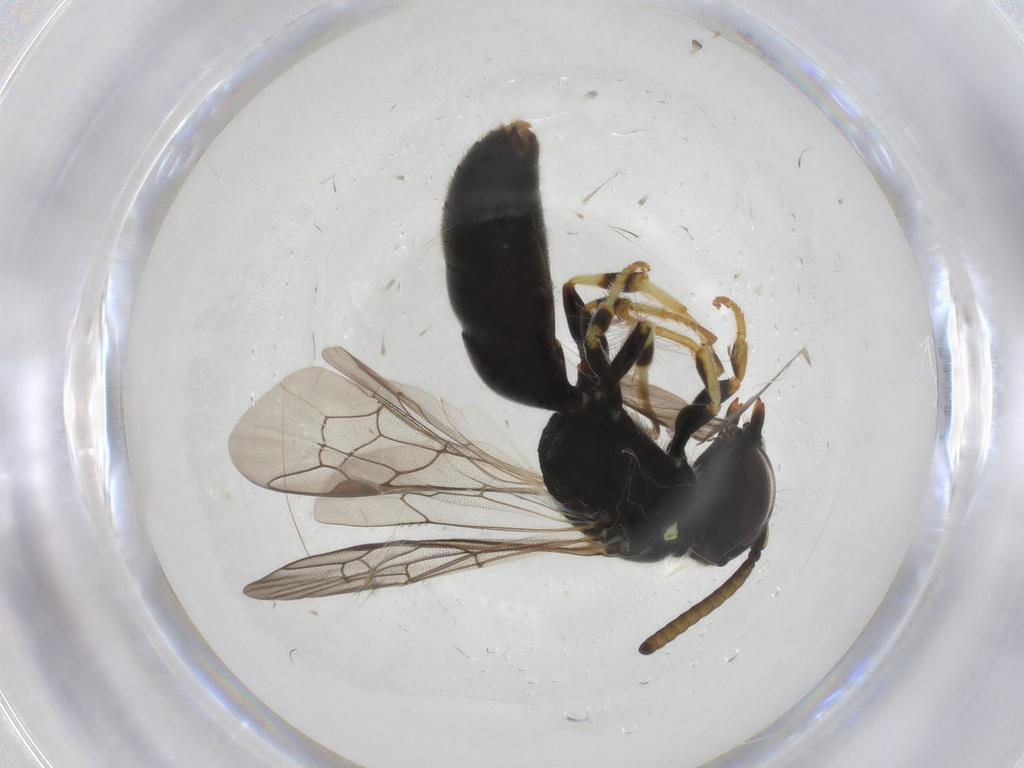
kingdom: Animalia
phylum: Arthropoda
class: Insecta
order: Hymenoptera
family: Colletidae
